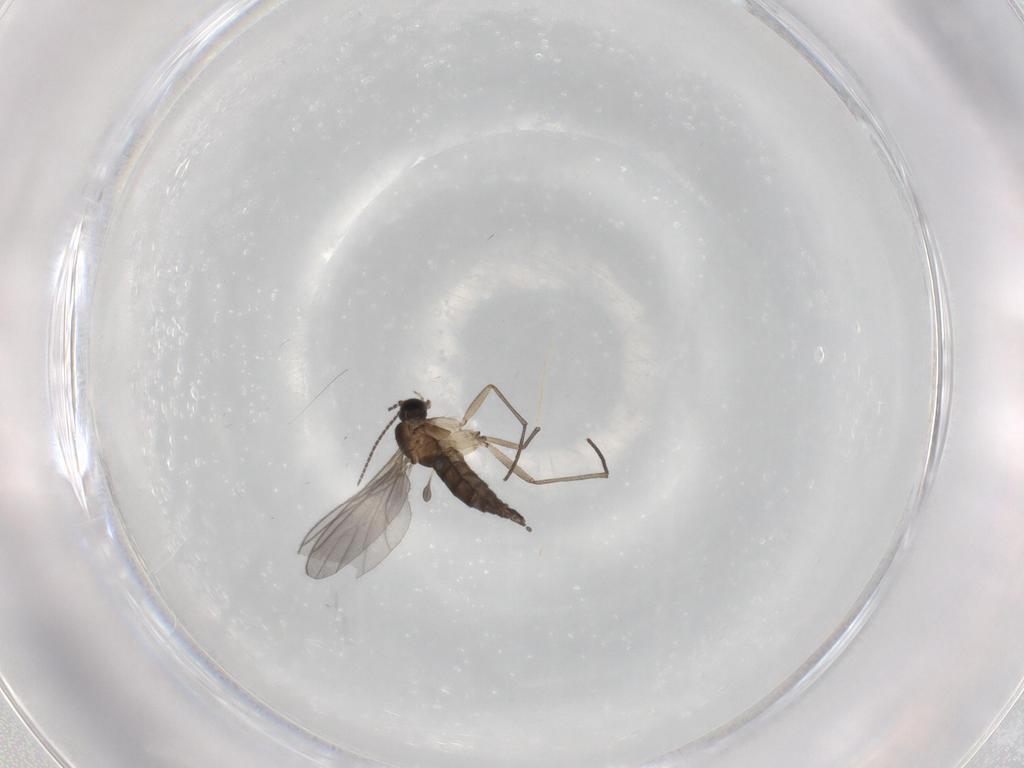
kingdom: Animalia
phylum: Arthropoda
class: Insecta
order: Diptera
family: Sciaridae
